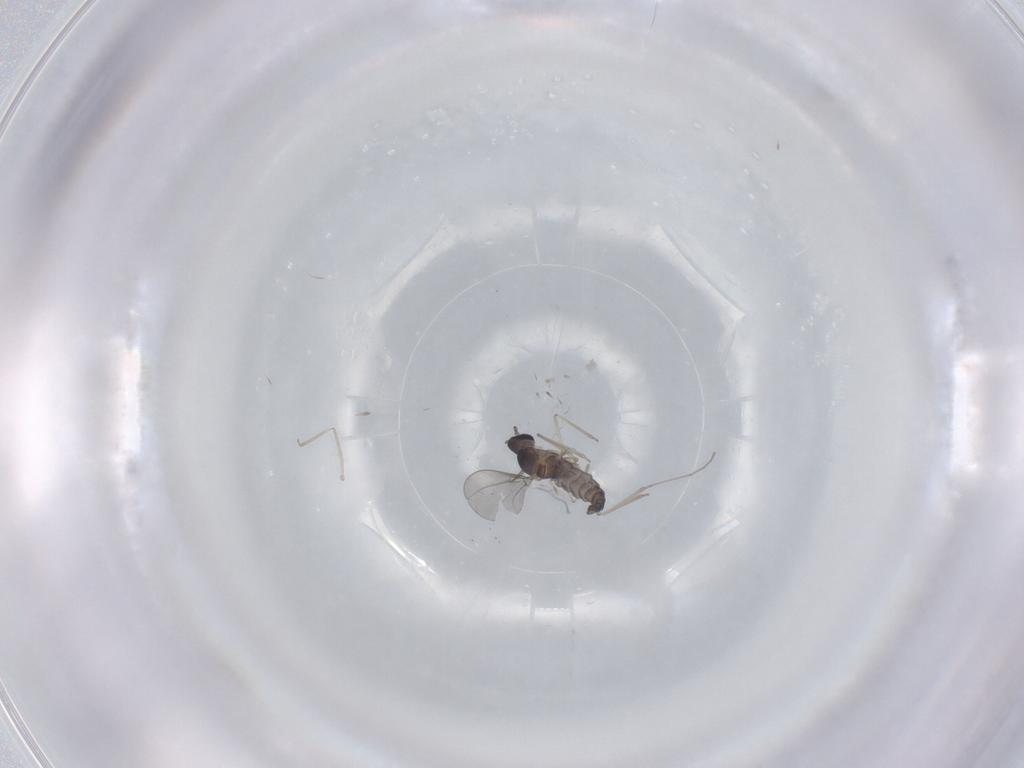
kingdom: Animalia
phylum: Arthropoda
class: Insecta
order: Diptera
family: Cecidomyiidae
